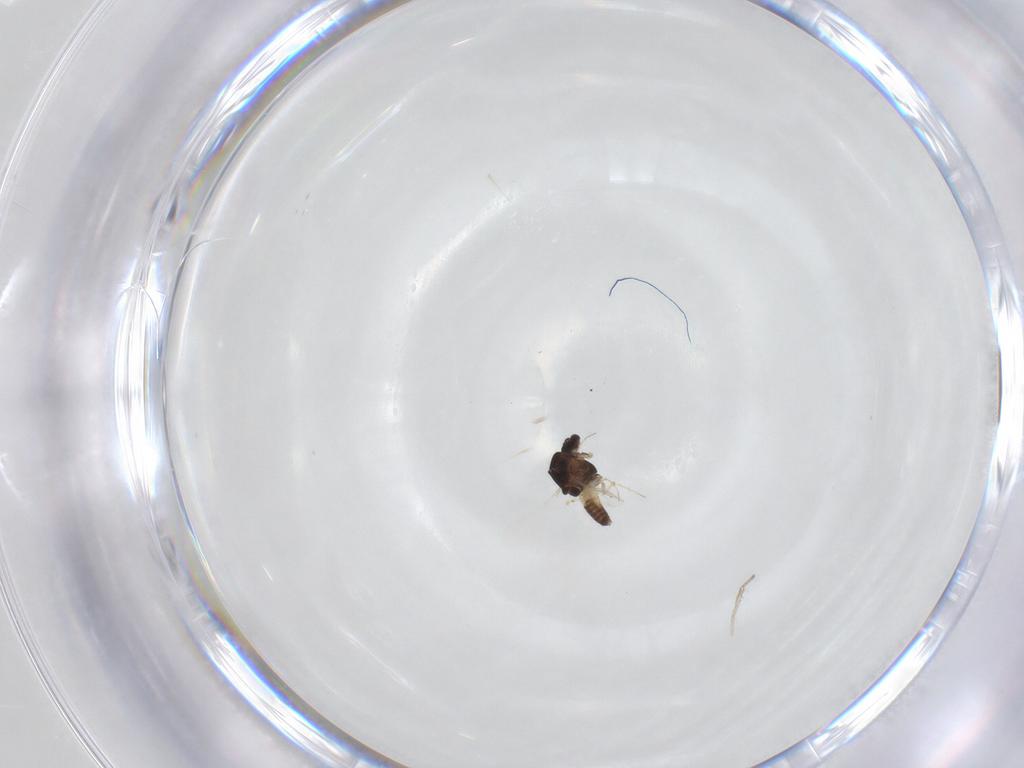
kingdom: Animalia
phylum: Arthropoda
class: Insecta
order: Diptera
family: Chironomidae
